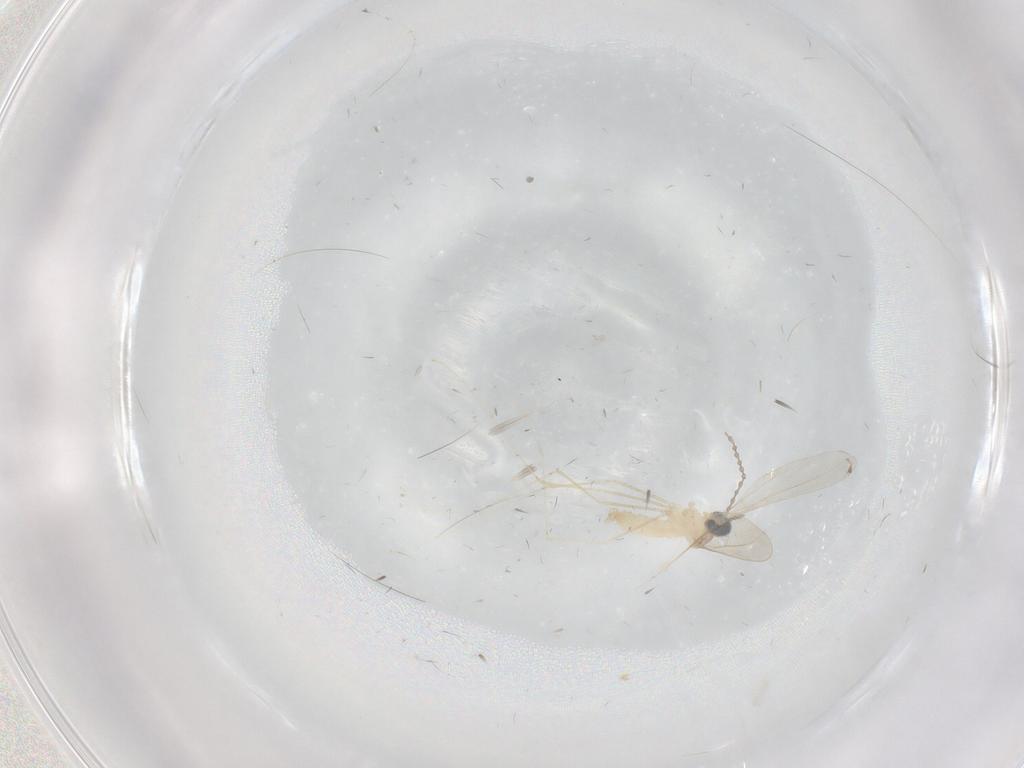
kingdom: Animalia
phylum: Arthropoda
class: Insecta
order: Diptera
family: Cecidomyiidae
